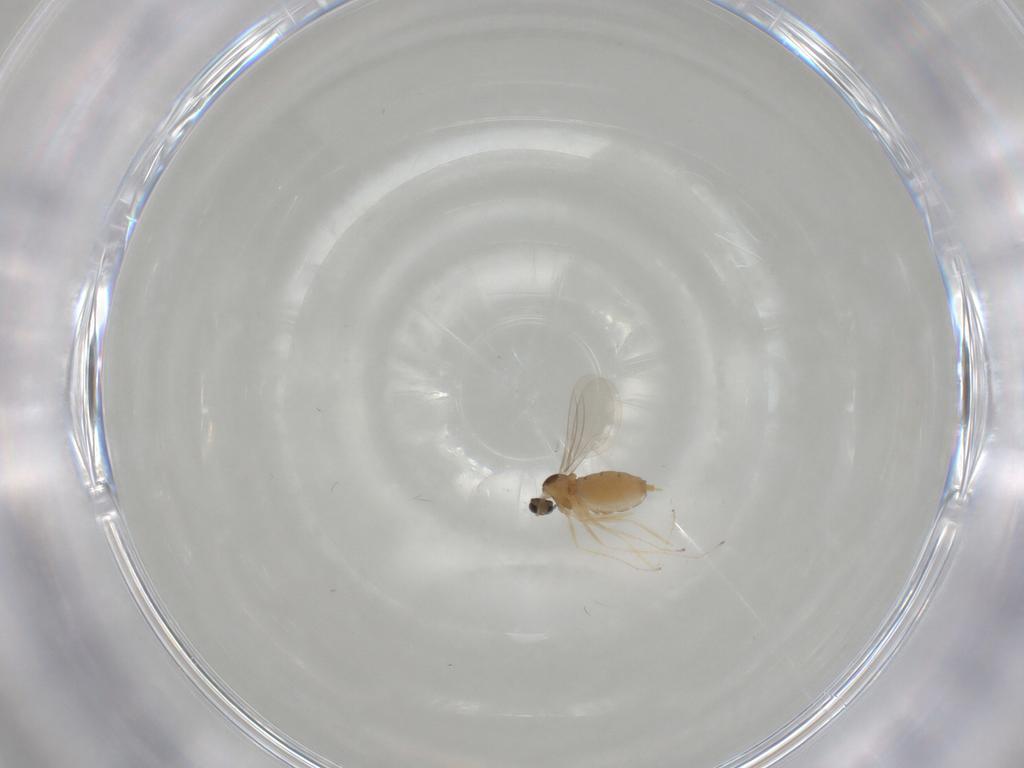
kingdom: Animalia
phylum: Arthropoda
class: Insecta
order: Diptera
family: Cecidomyiidae
